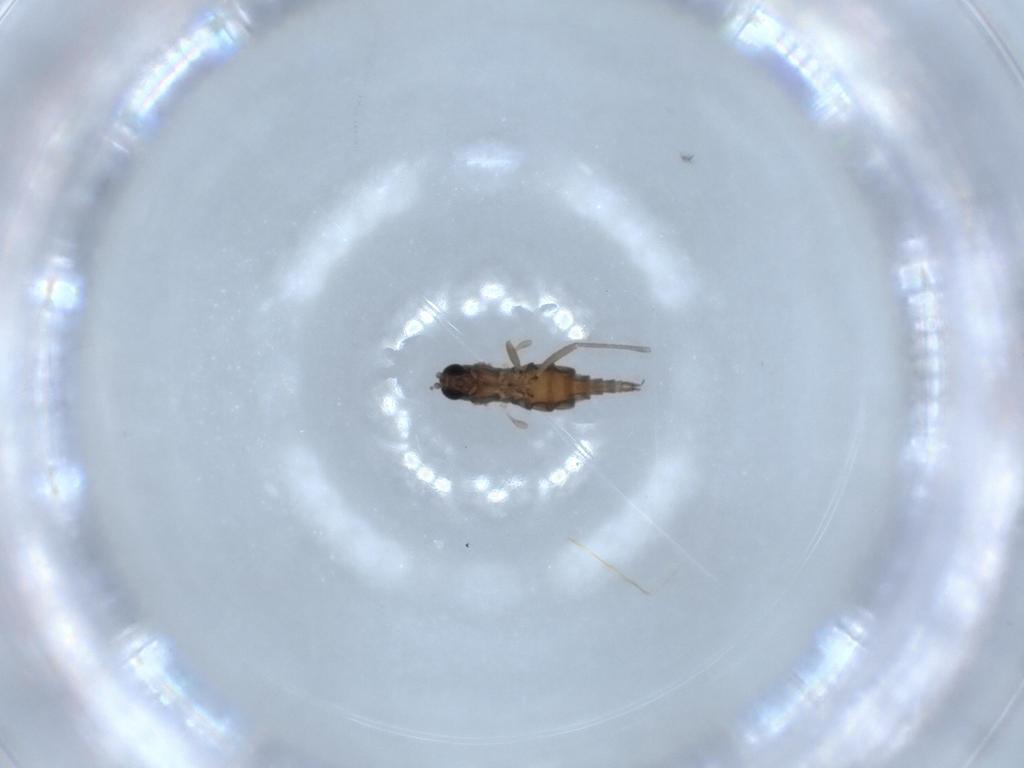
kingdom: Animalia
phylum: Arthropoda
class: Insecta
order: Diptera
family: Sciaridae
